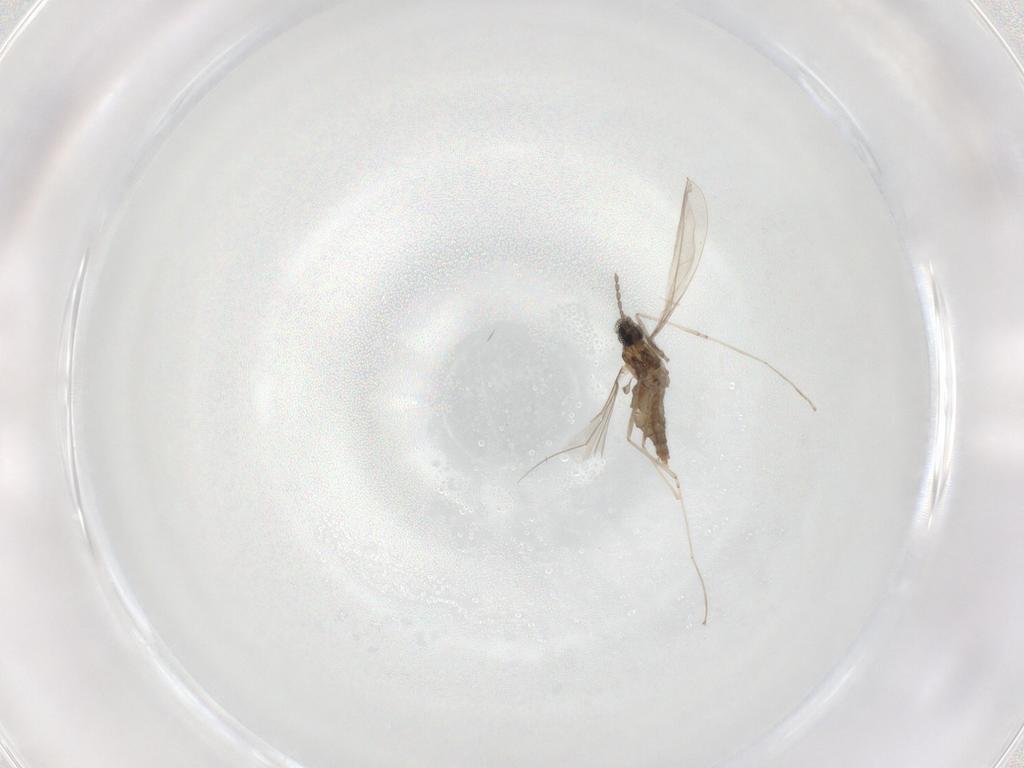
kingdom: Animalia
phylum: Arthropoda
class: Insecta
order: Diptera
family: Cecidomyiidae
